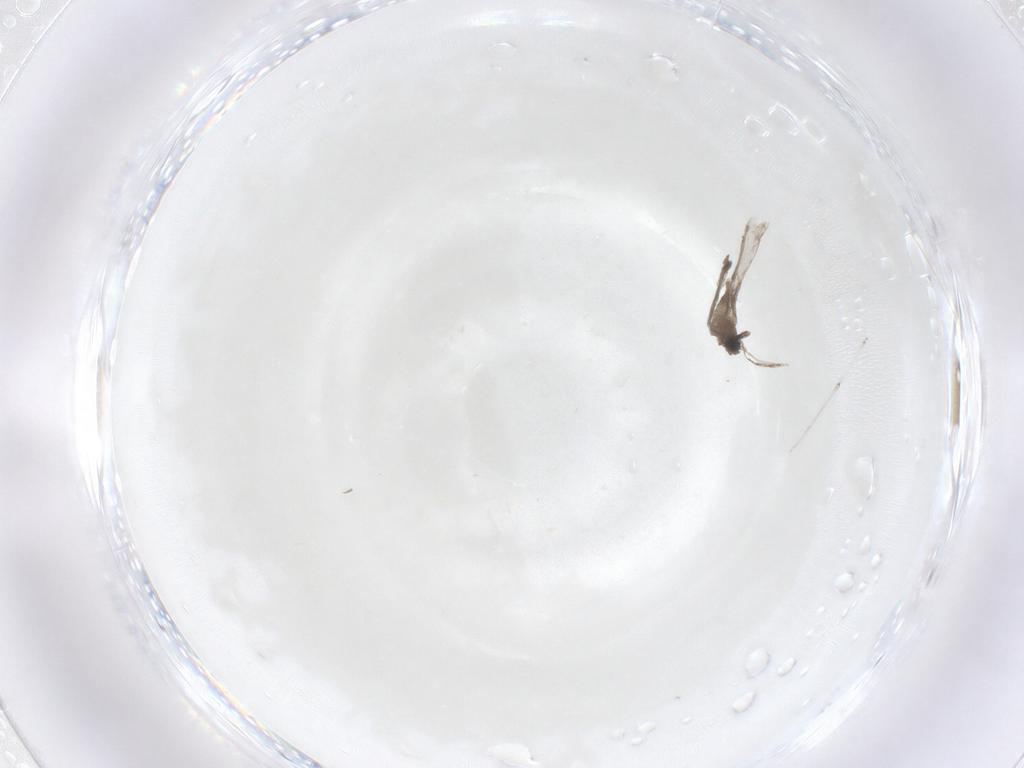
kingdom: Animalia
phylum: Arthropoda
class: Insecta
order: Diptera
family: Cecidomyiidae
